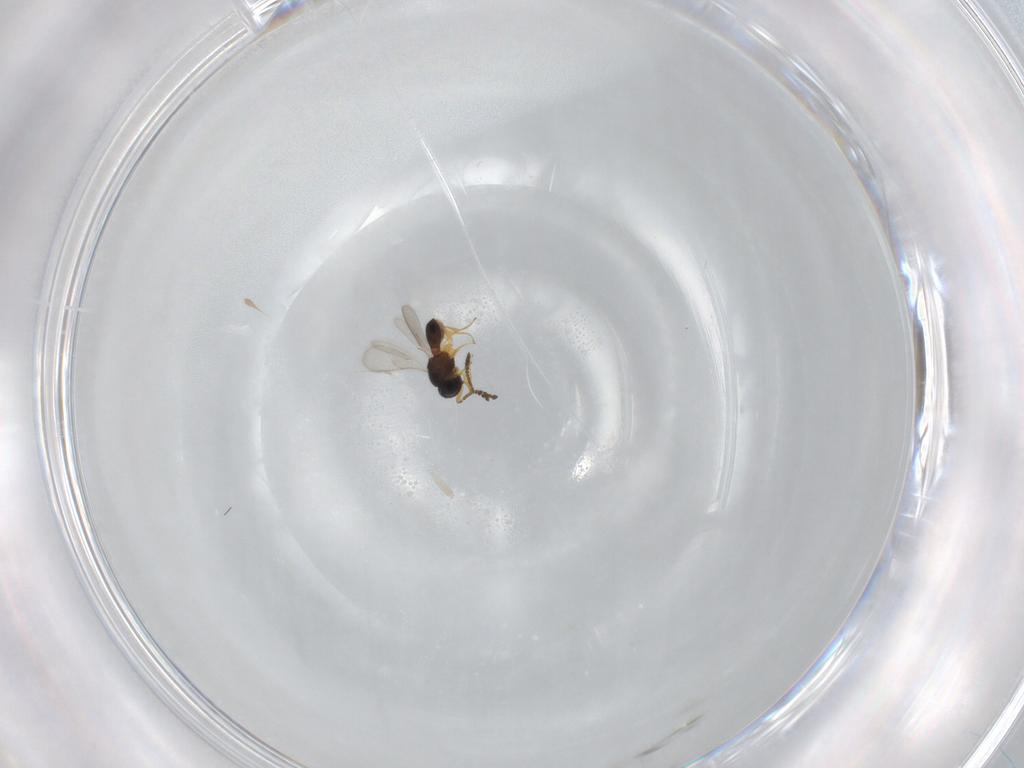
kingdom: Animalia
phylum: Arthropoda
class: Insecta
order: Hymenoptera
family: Scelionidae
